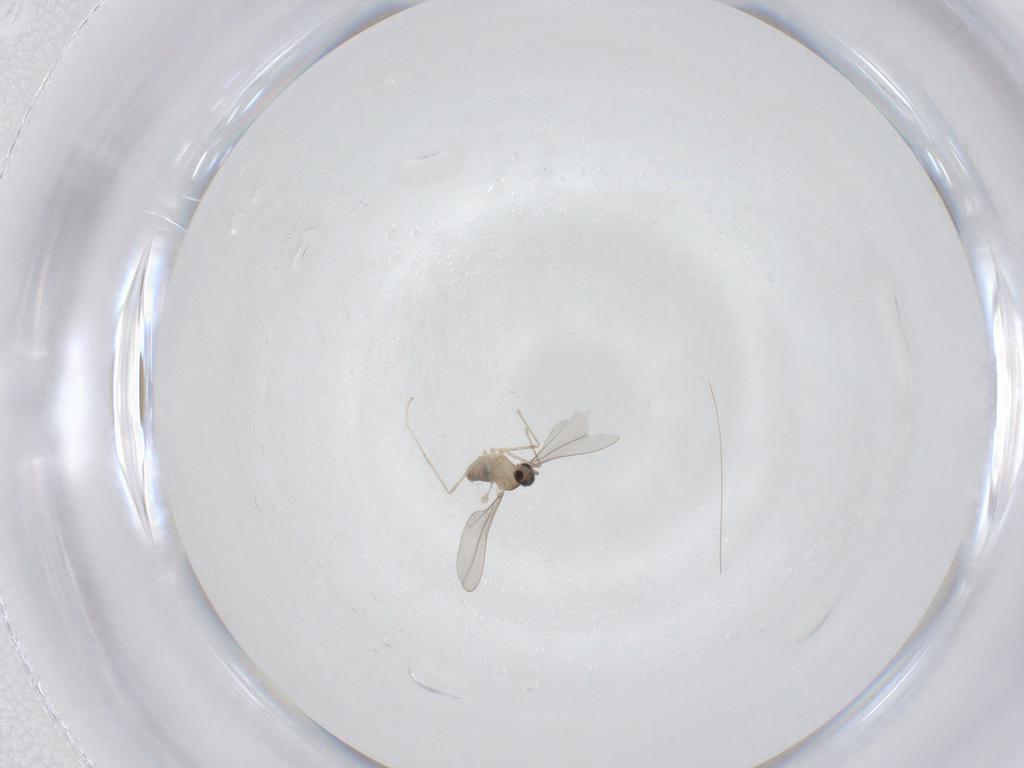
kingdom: Animalia
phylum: Arthropoda
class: Insecta
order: Diptera
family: Cecidomyiidae
